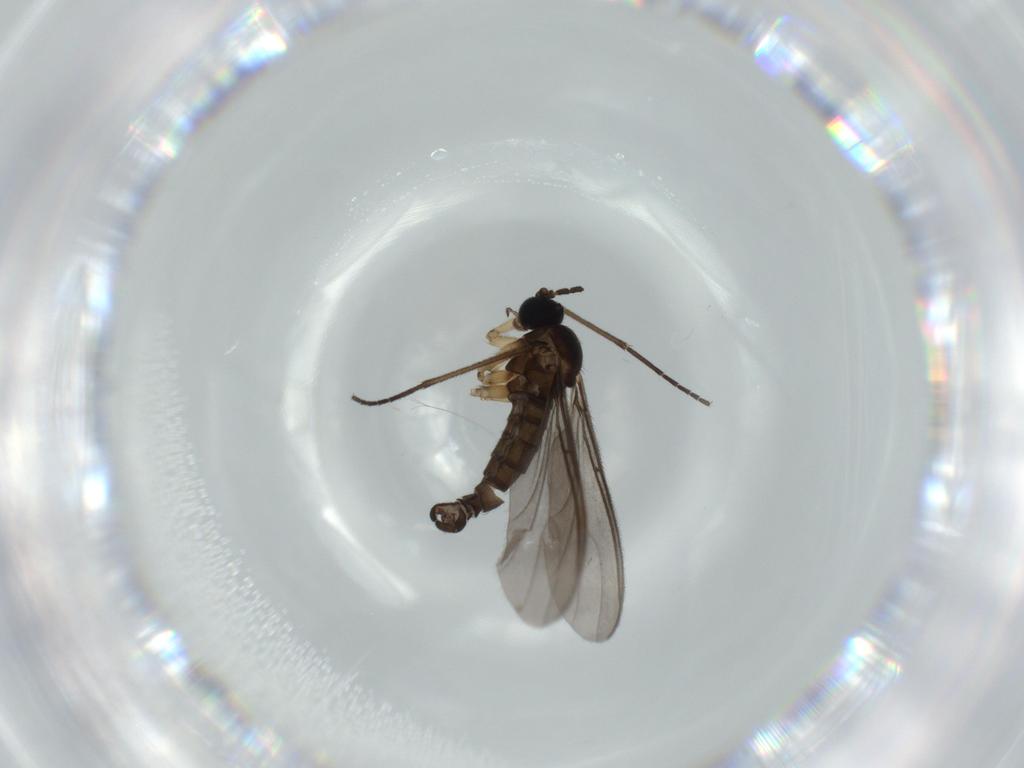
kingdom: Animalia
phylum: Arthropoda
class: Insecta
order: Diptera
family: Sciaridae
